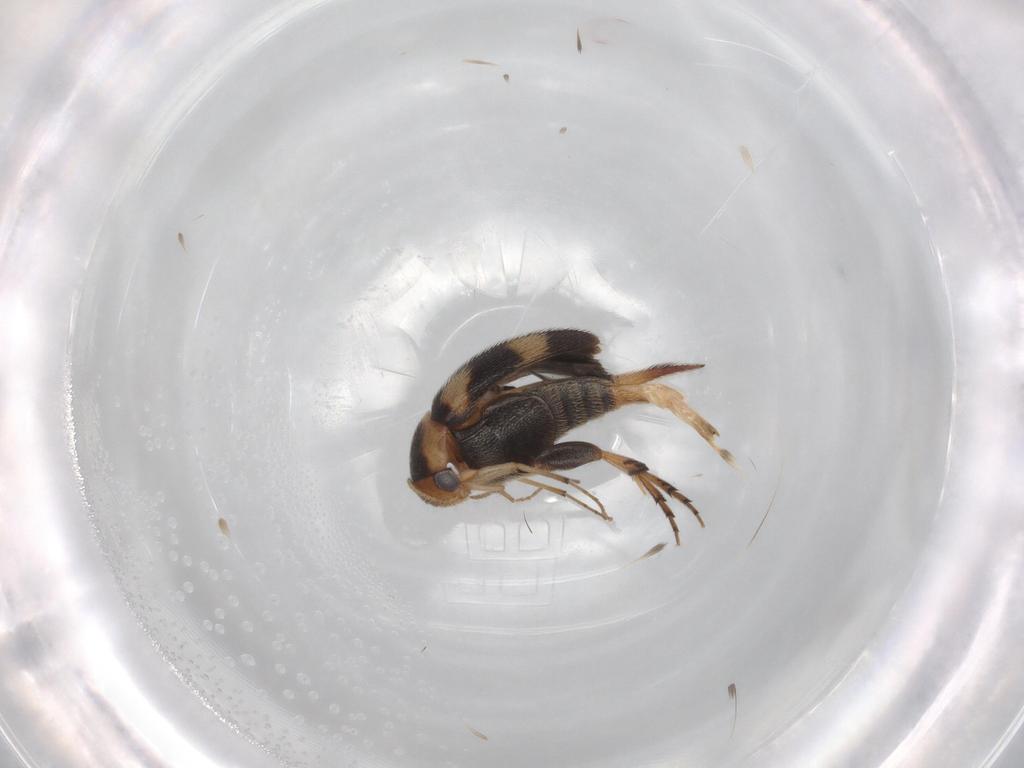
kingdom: Animalia
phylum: Arthropoda
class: Insecta
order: Coleoptera
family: Mordellidae
